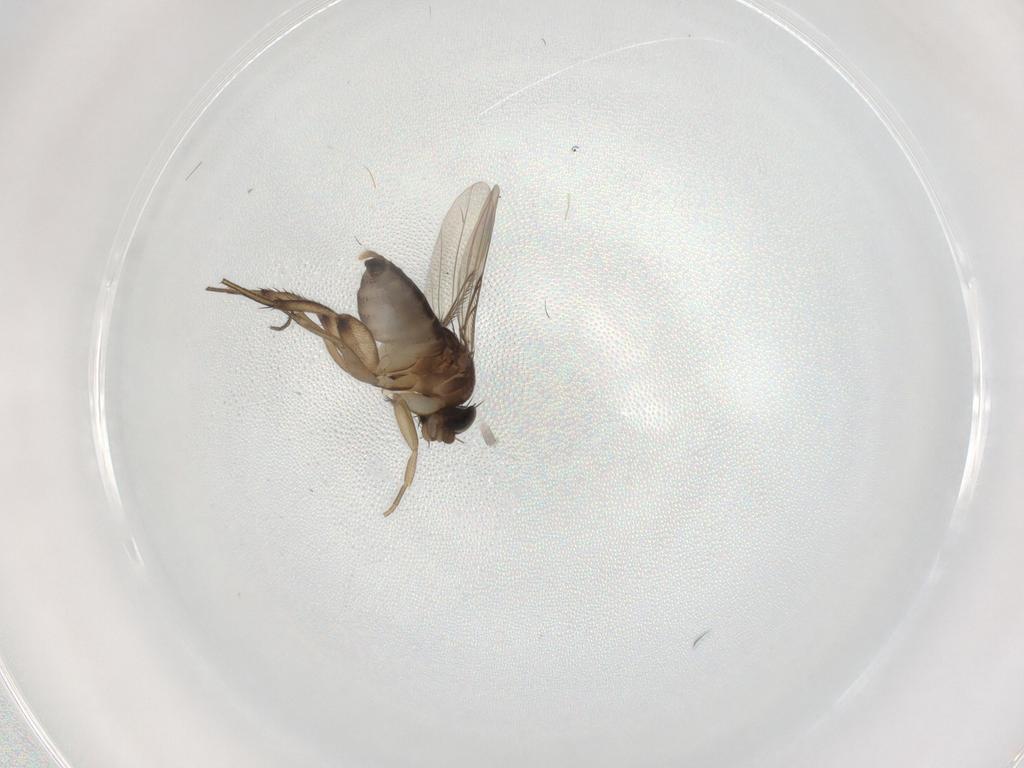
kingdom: Animalia
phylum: Arthropoda
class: Insecta
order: Diptera
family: Phoridae
